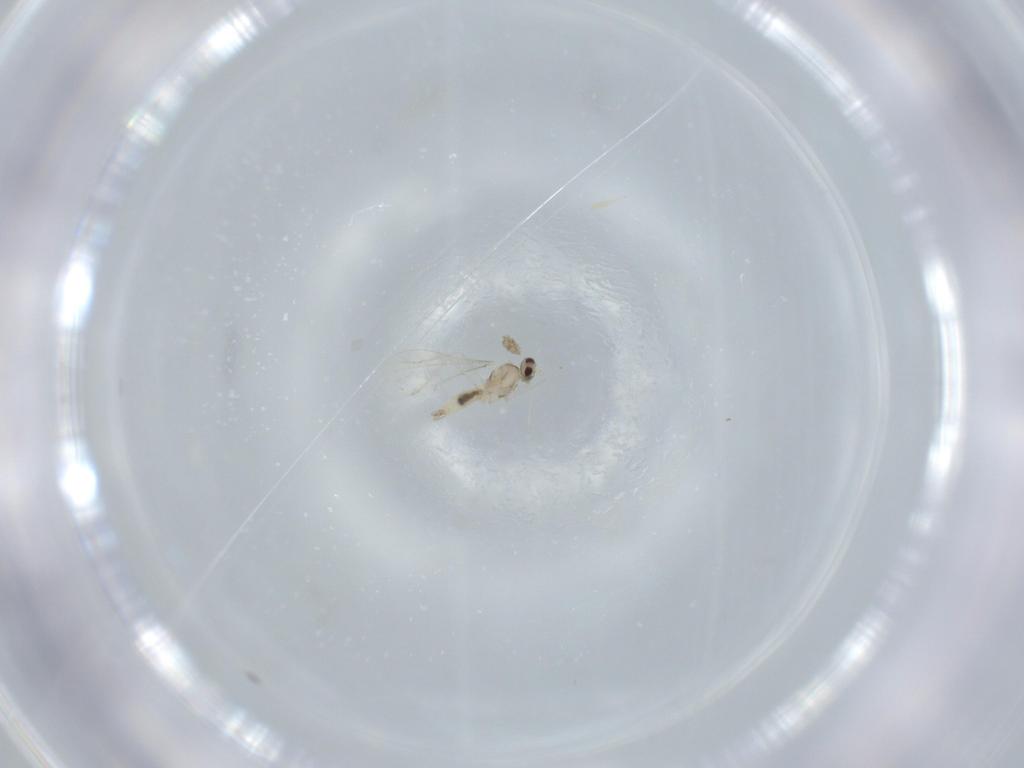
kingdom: Animalia
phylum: Arthropoda
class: Insecta
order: Diptera
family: Cecidomyiidae
